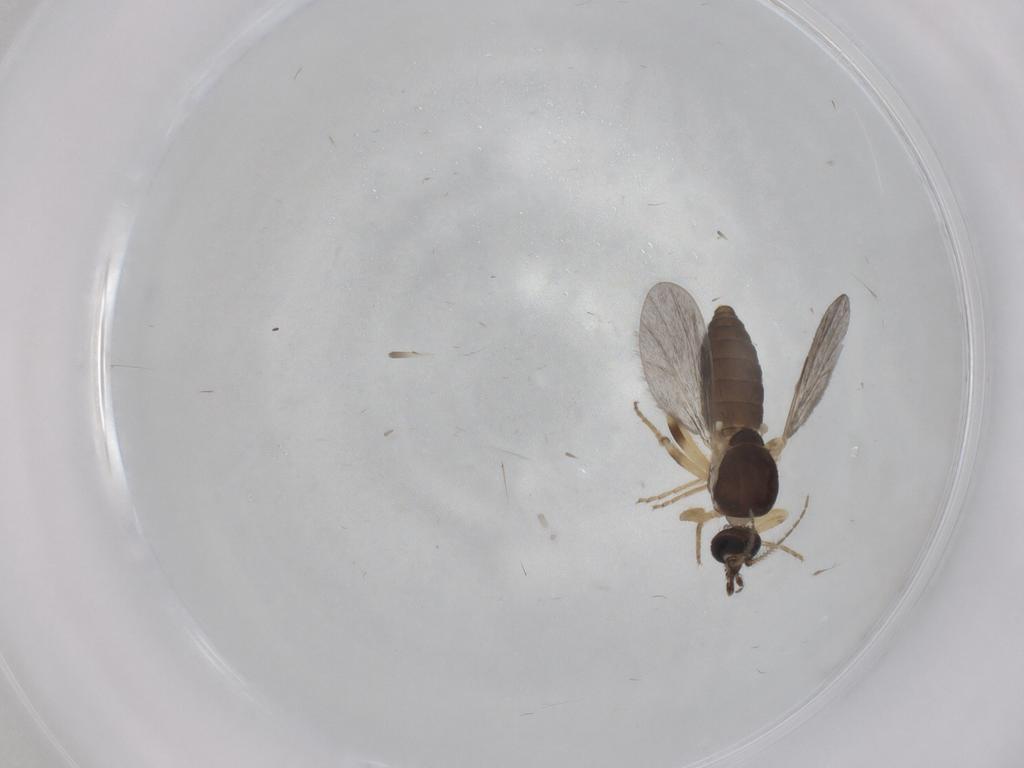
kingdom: Animalia
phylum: Arthropoda
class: Insecta
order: Diptera
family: Ceratopogonidae
